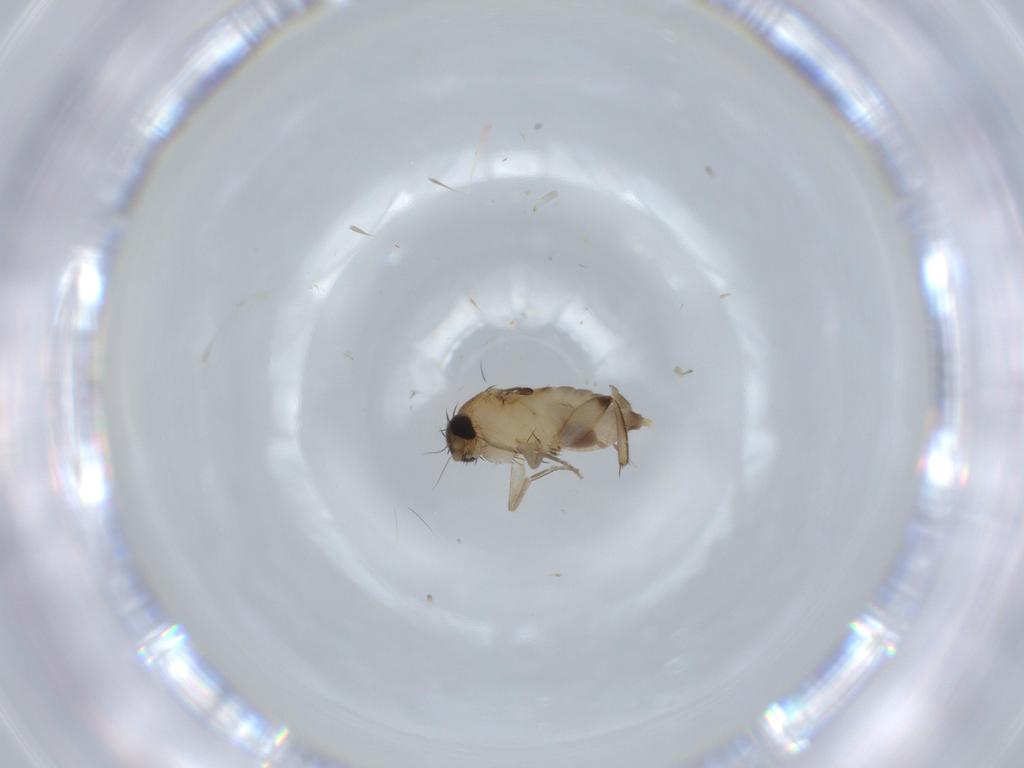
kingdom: Animalia
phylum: Arthropoda
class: Insecta
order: Diptera
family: Phoridae
